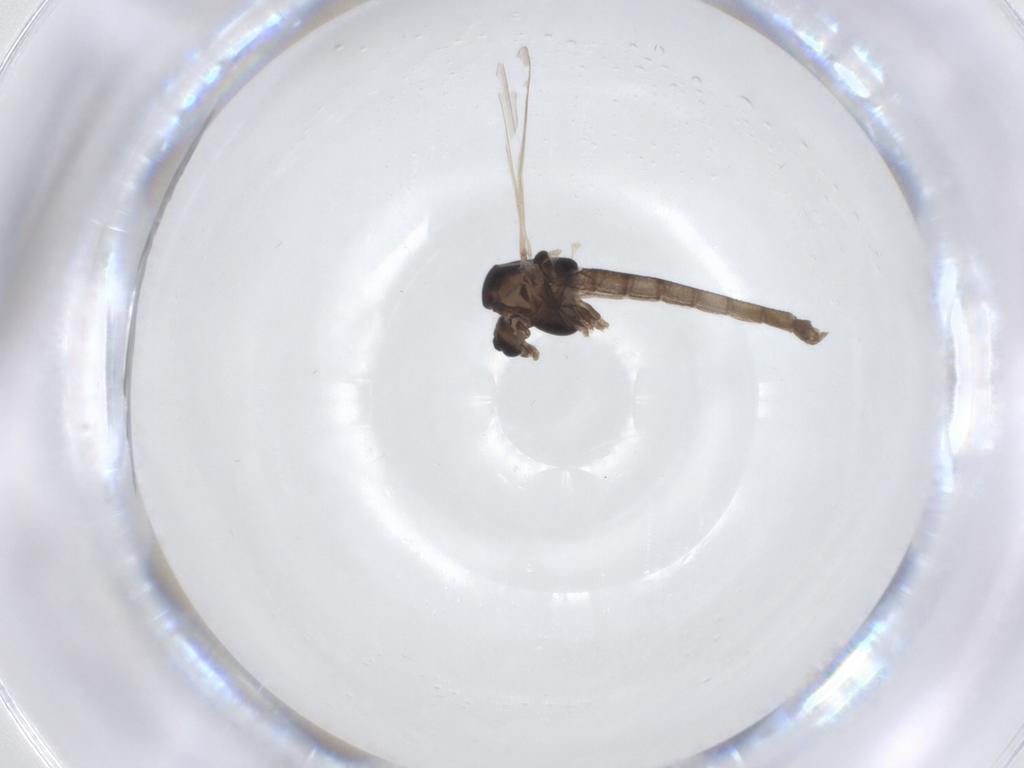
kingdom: Animalia
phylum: Arthropoda
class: Insecta
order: Diptera
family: Chironomidae
